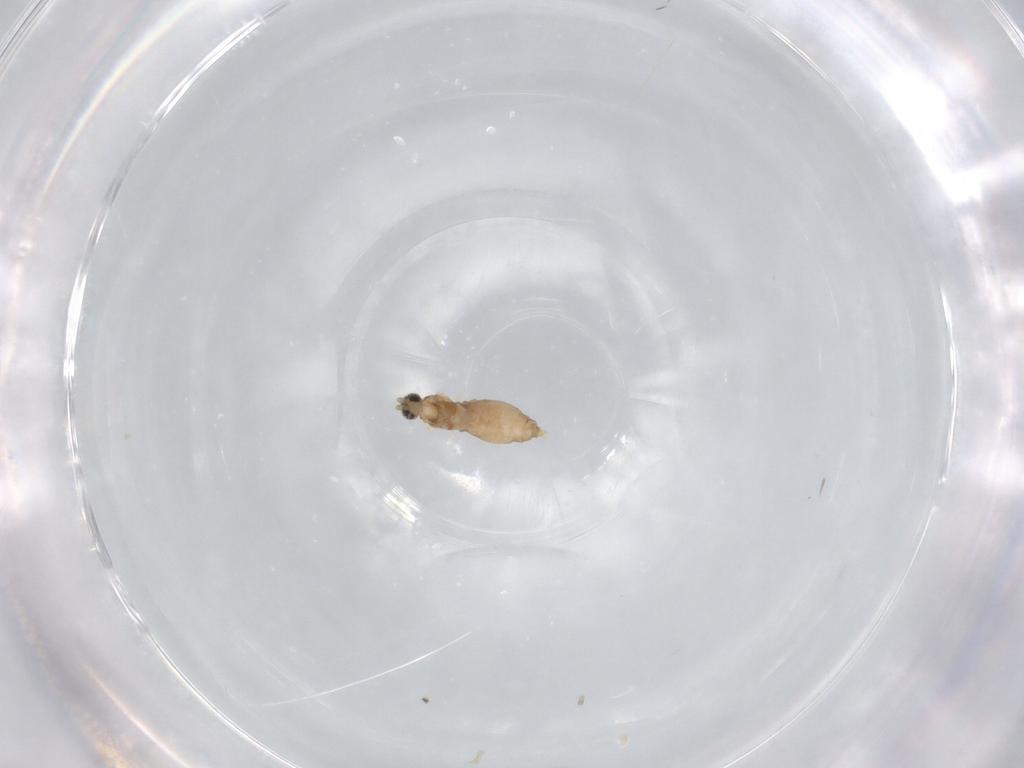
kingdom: Animalia
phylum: Arthropoda
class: Insecta
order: Diptera
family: Cecidomyiidae
